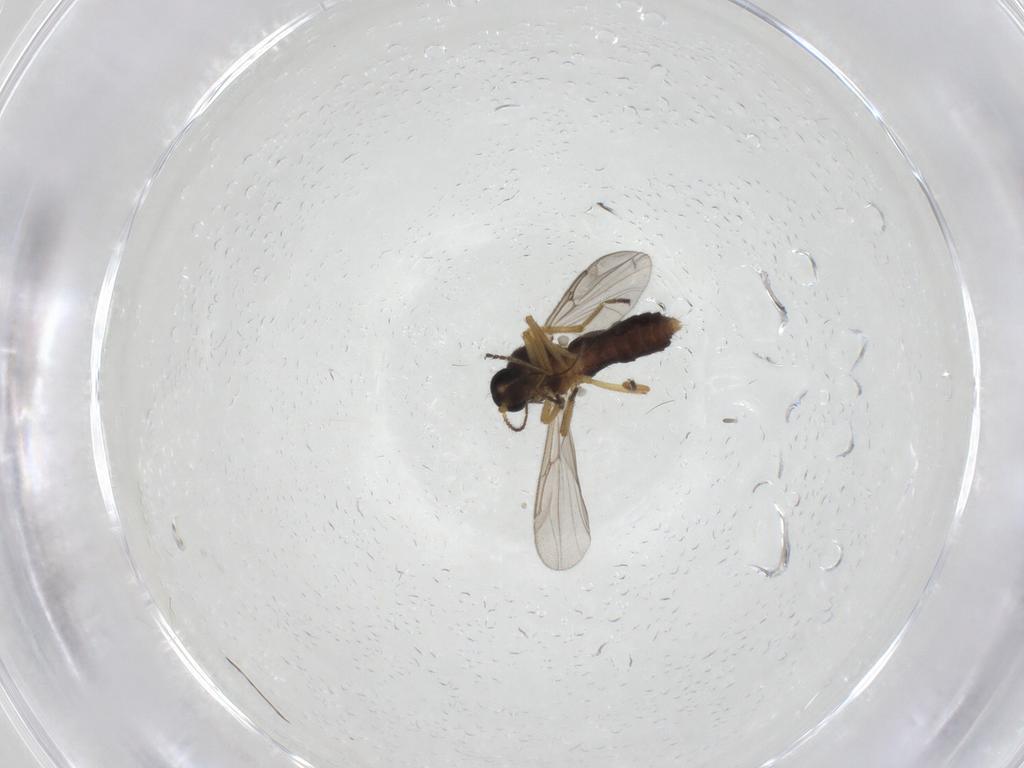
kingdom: Animalia
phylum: Arthropoda
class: Insecta
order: Diptera
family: Ceratopogonidae
